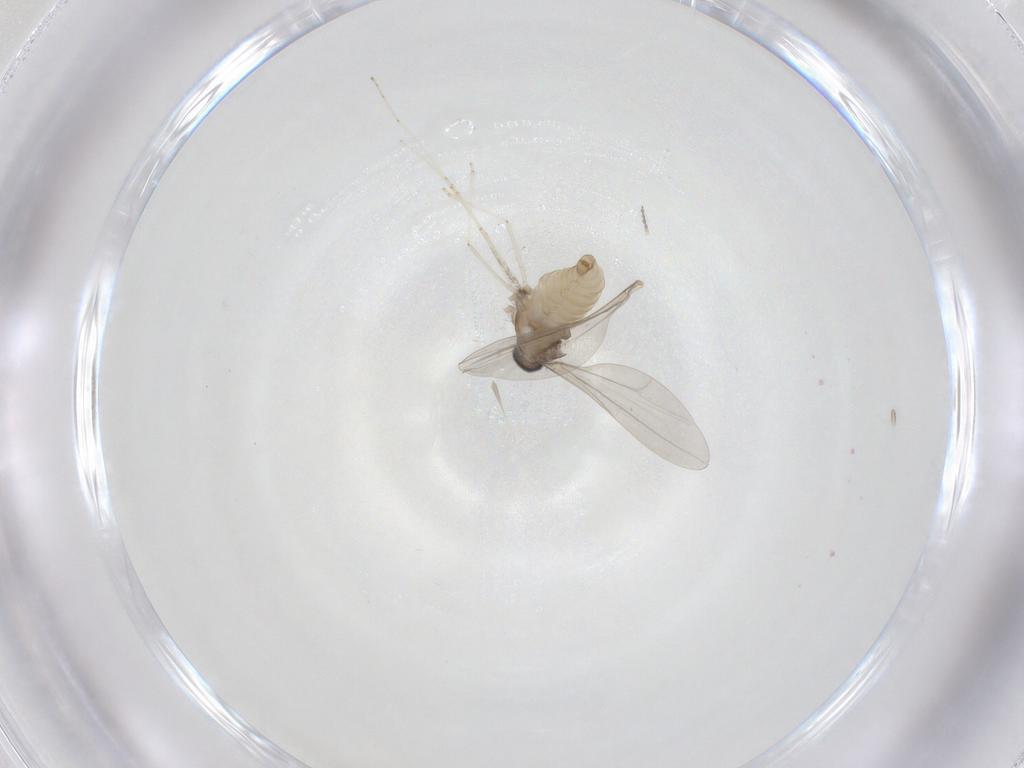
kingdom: Animalia
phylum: Arthropoda
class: Insecta
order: Diptera
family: Cecidomyiidae
